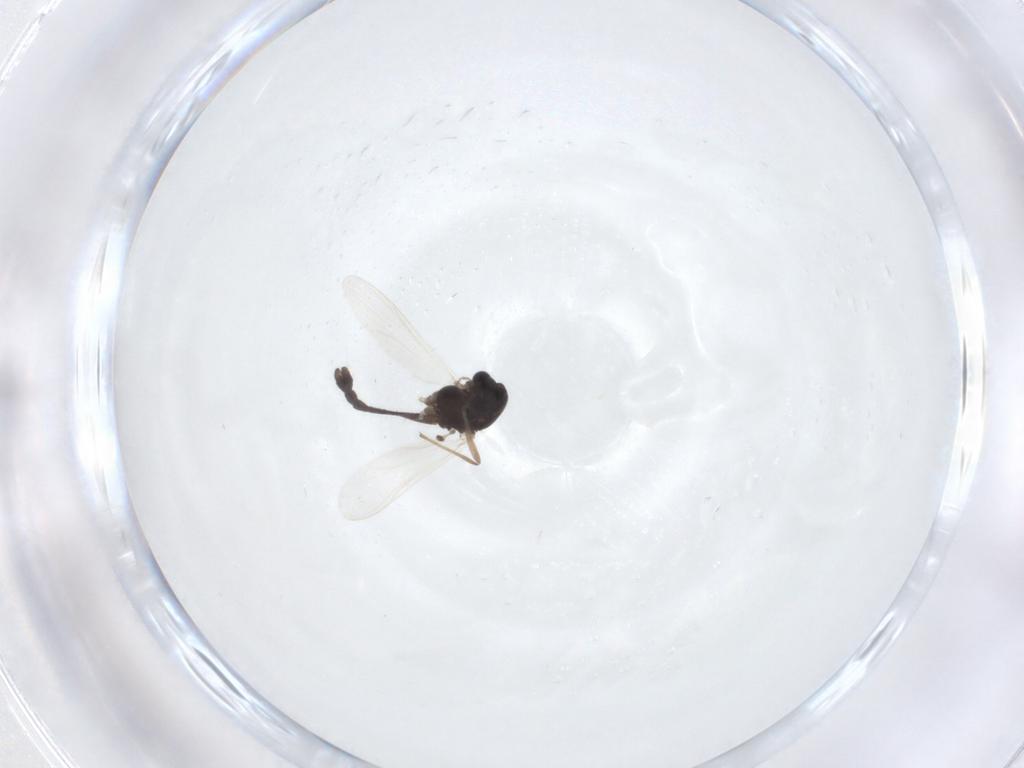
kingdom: Animalia
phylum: Arthropoda
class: Insecta
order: Diptera
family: Chironomidae
